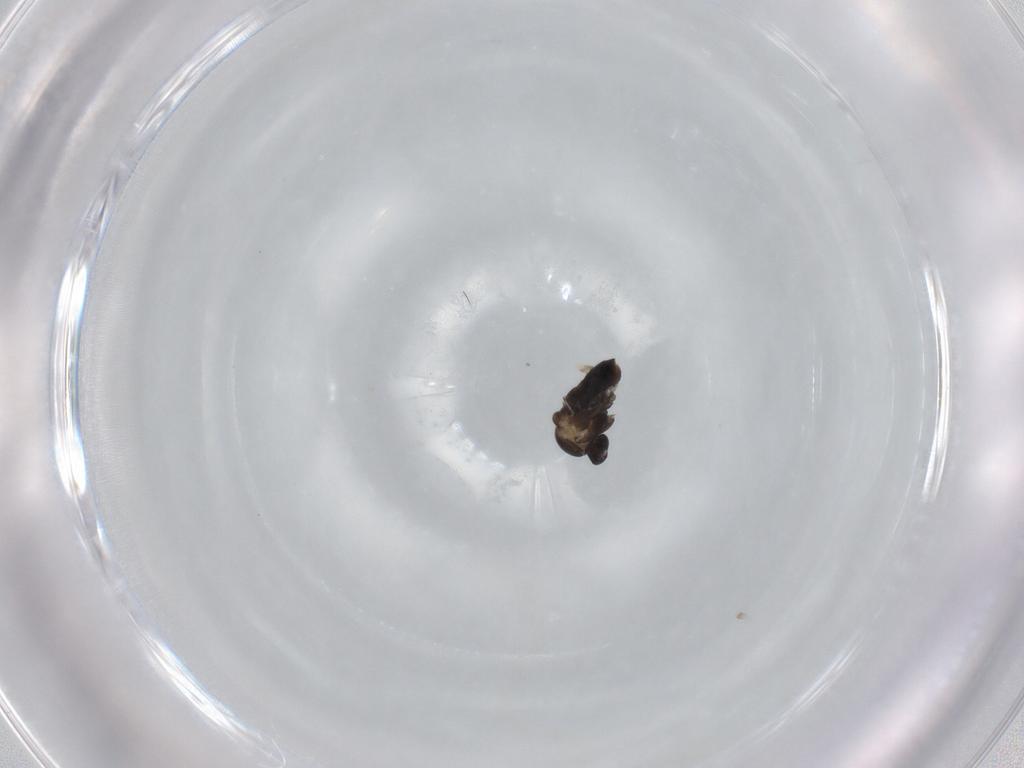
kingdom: Animalia
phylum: Arthropoda
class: Insecta
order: Diptera
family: Cecidomyiidae
